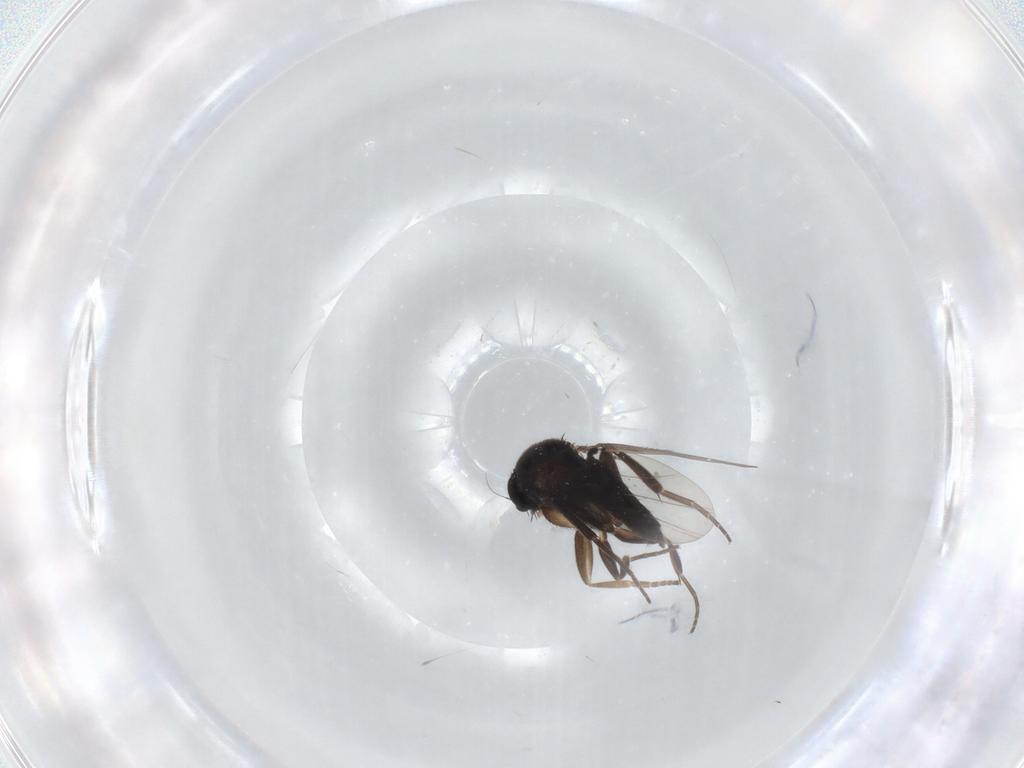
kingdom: Animalia
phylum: Arthropoda
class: Insecta
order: Diptera
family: Phoridae
